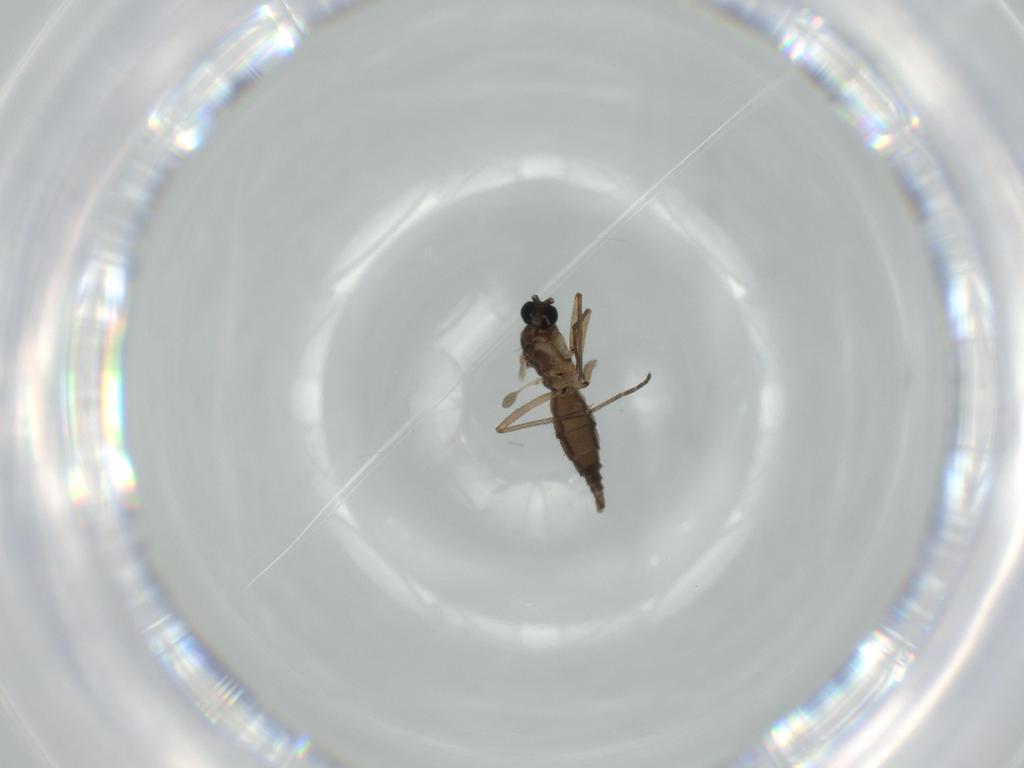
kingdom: Animalia
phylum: Arthropoda
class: Insecta
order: Diptera
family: Sciaridae
